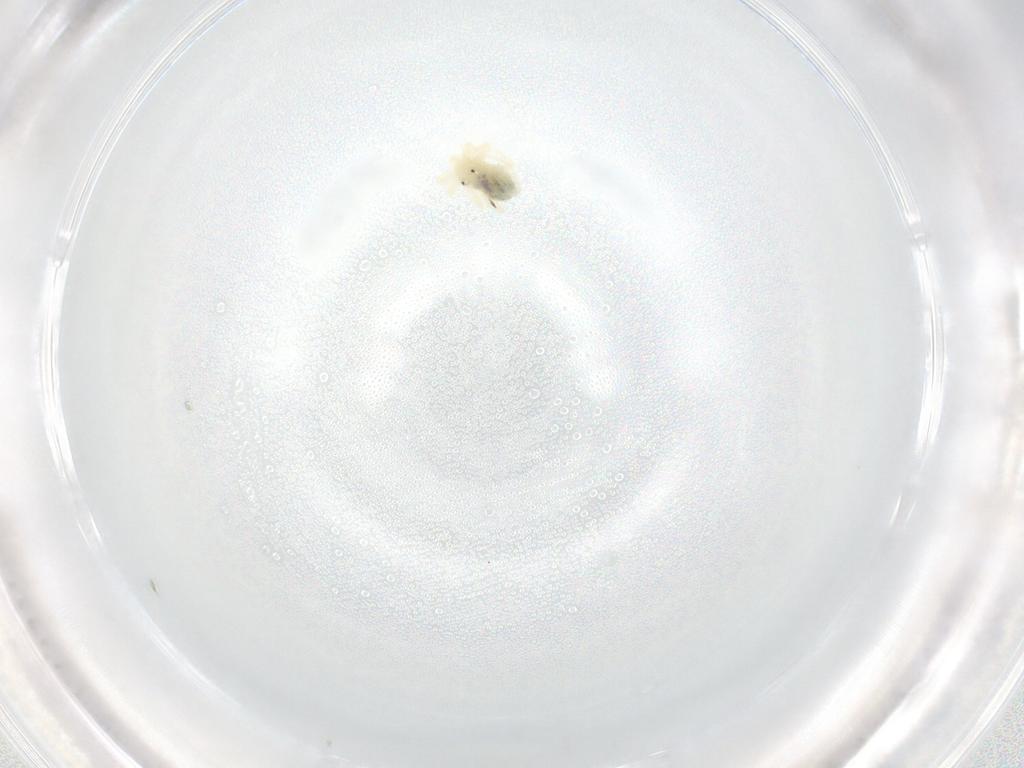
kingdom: Animalia
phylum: Arthropoda
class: Arachnida
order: Trombidiformes
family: Anystidae
